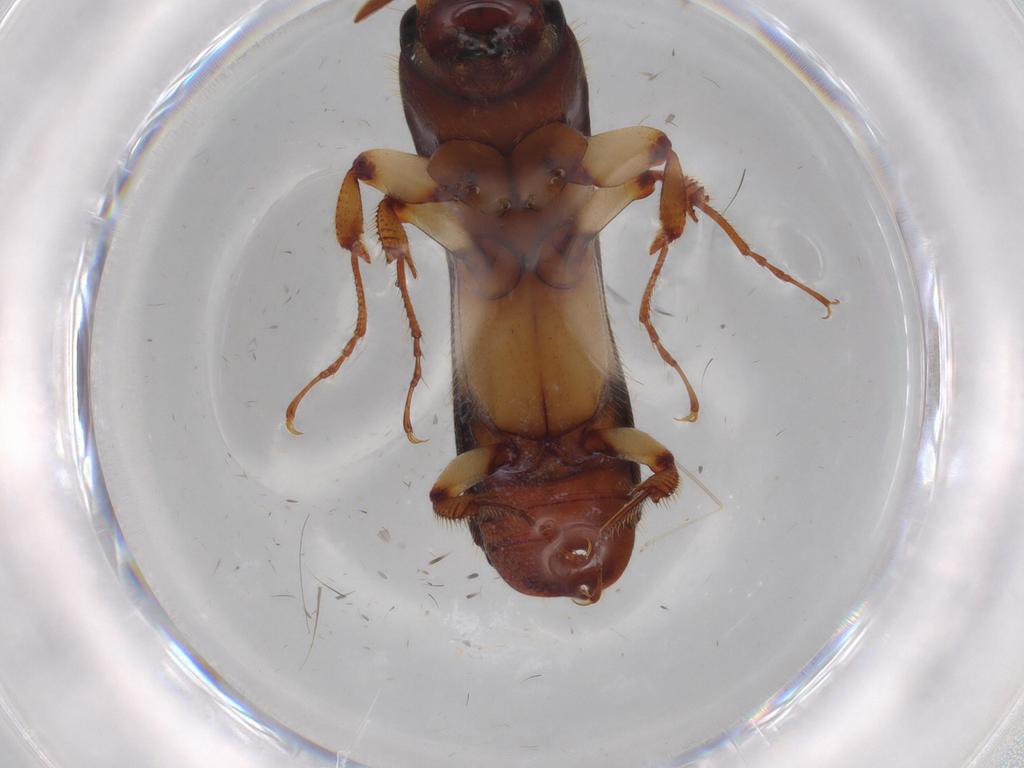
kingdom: Animalia
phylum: Arthropoda
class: Insecta
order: Coleoptera
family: Curculionidae
